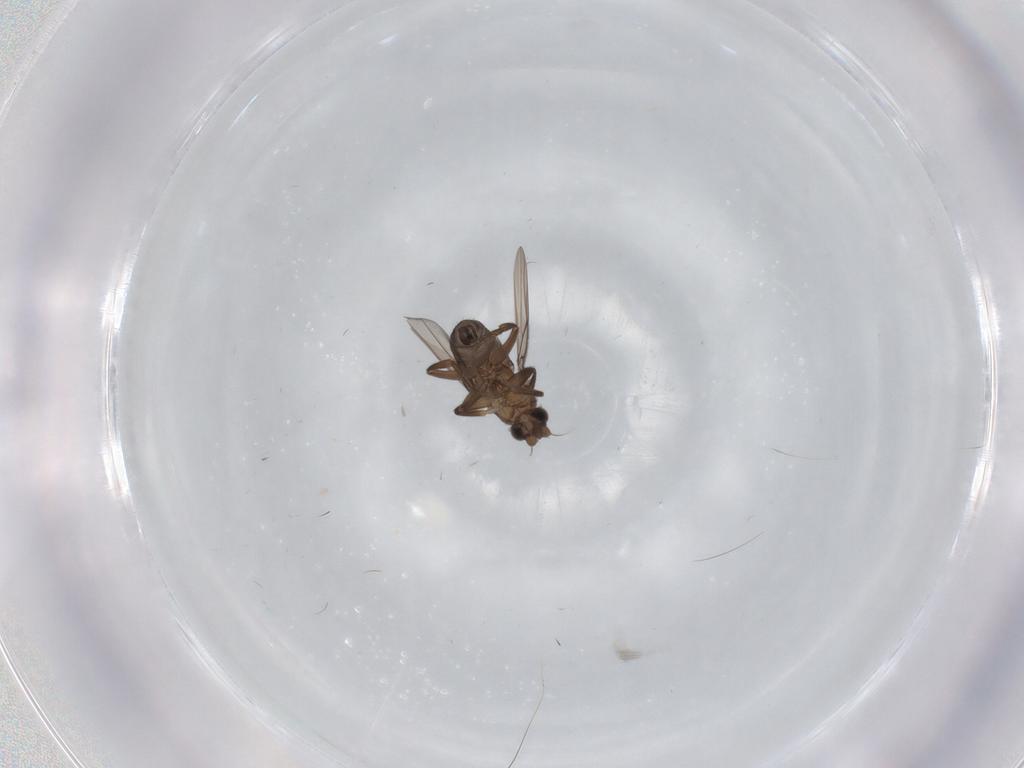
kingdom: Animalia
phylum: Arthropoda
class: Insecta
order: Diptera
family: Phoridae
